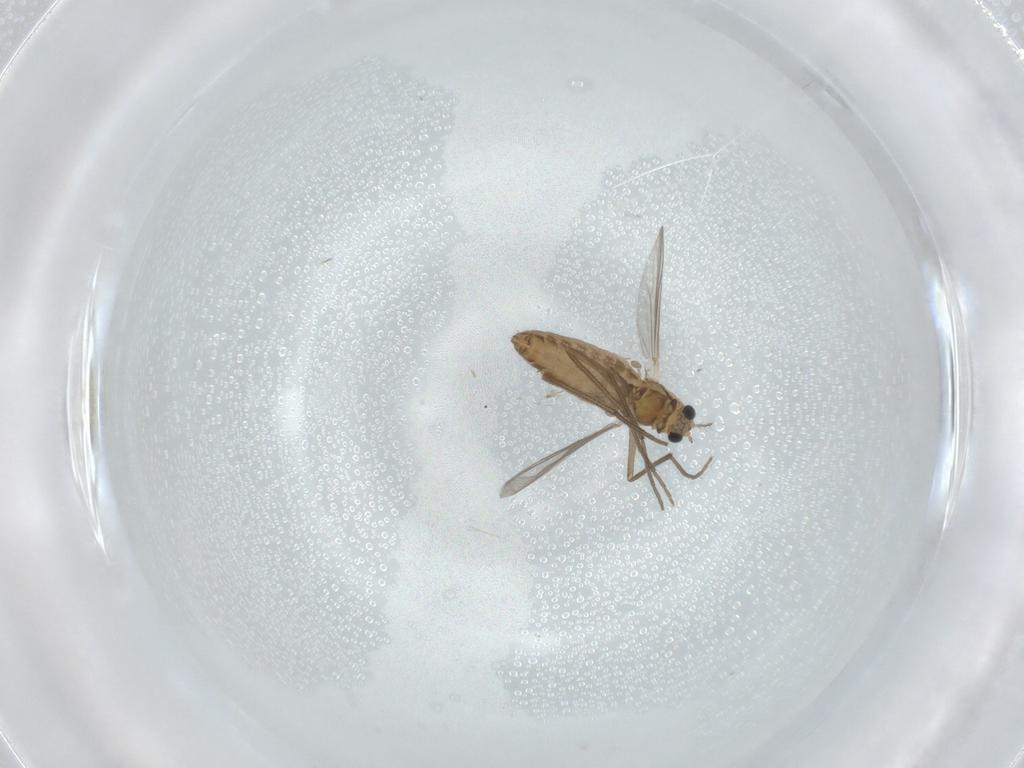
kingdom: Animalia
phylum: Arthropoda
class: Insecta
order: Diptera
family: Chironomidae
